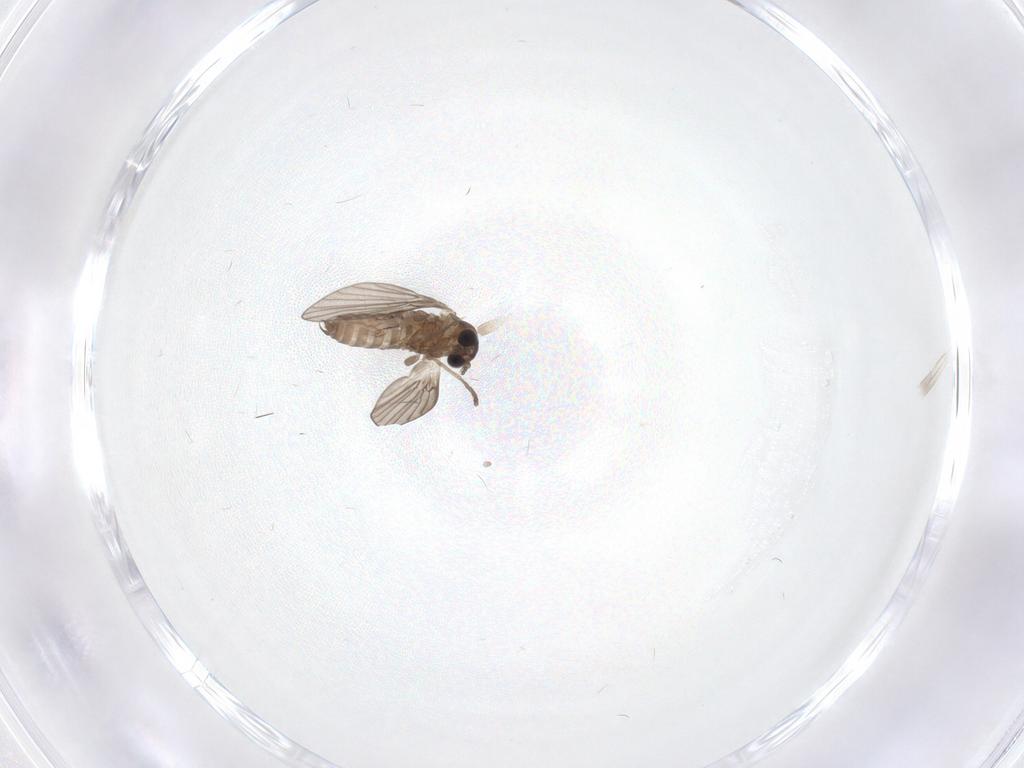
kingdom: Animalia
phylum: Arthropoda
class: Insecta
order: Diptera
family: Psychodidae
